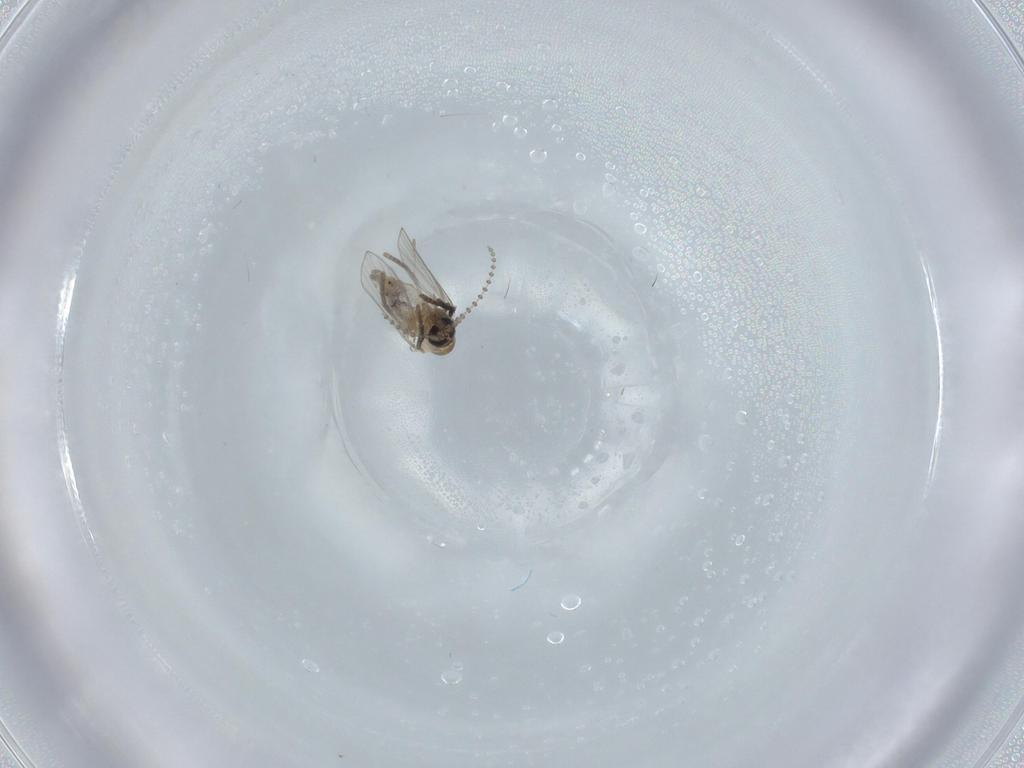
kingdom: Animalia
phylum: Arthropoda
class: Insecta
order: Diptera
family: Psychodidae
